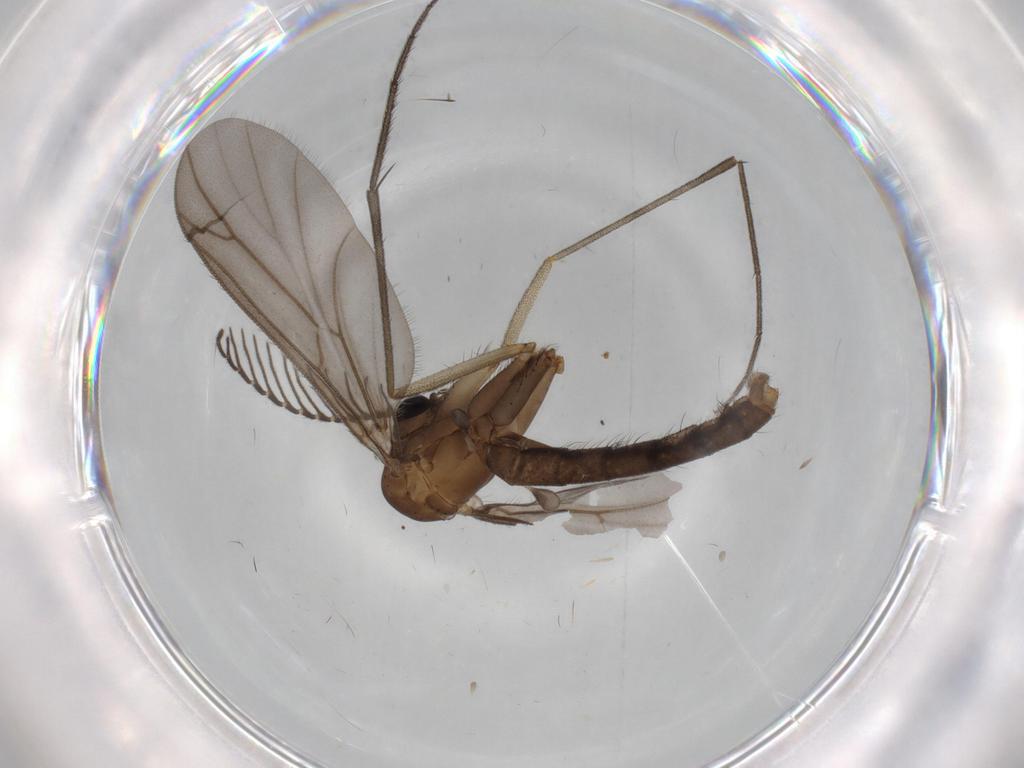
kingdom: Animalia
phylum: Arthropoda
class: Insecta
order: Diptera
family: Ditomyiidae
